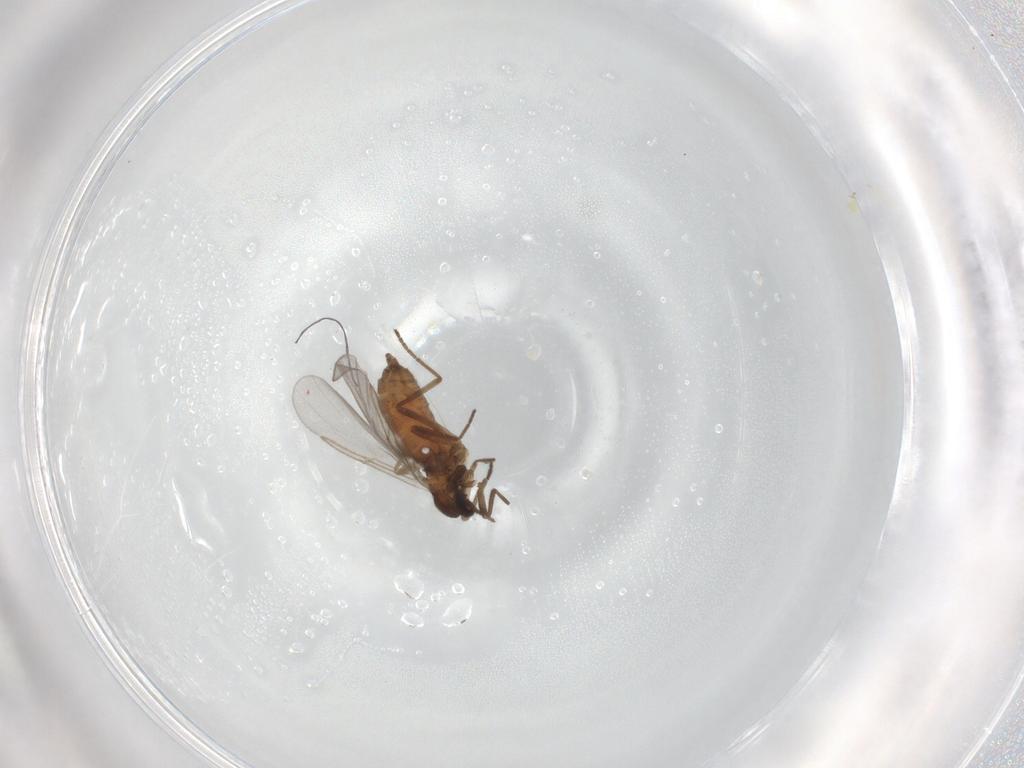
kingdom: Animalia
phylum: Arthropoda
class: Insecta
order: Diptera
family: Cecidomyiidae
